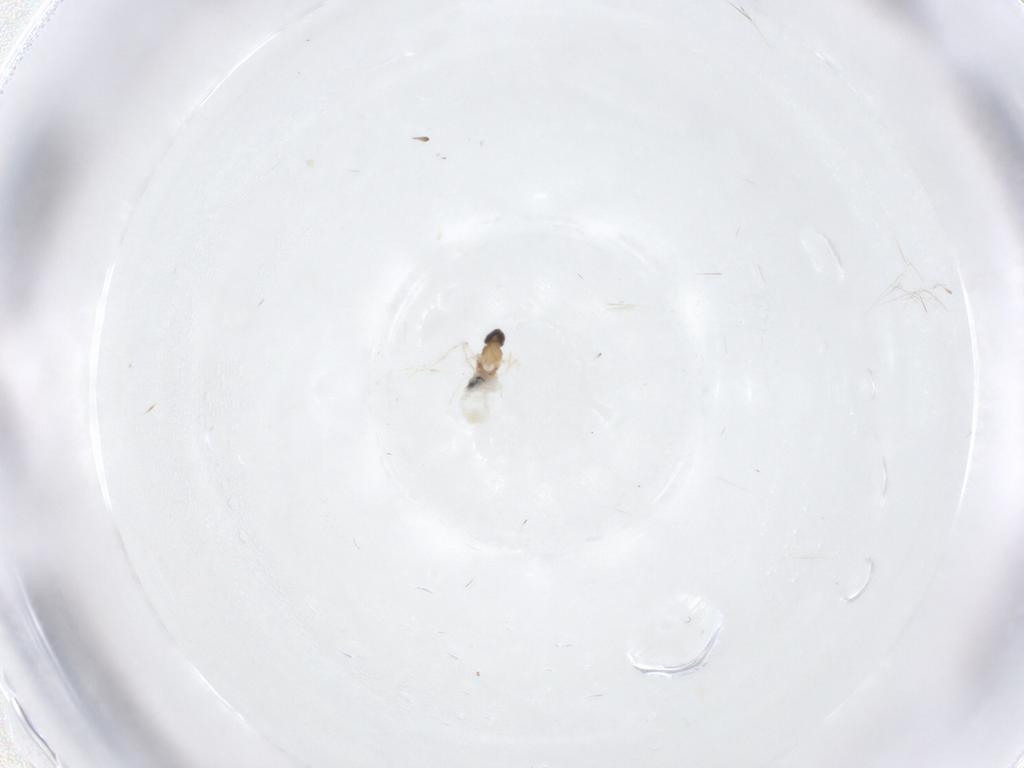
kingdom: Animalia
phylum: Arthropoda
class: Insecta
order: Diptera
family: Cecidomyiidae
